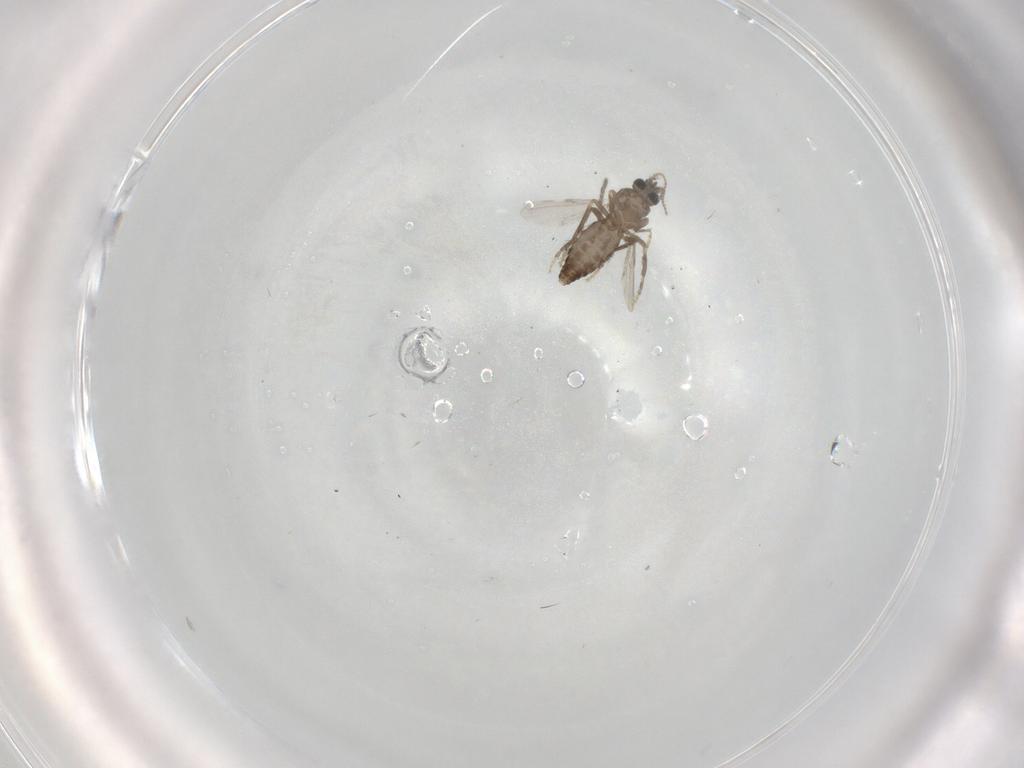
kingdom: Animalia
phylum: Arthropoda
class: Insecta
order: Diptera
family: Ceratopogonidae
